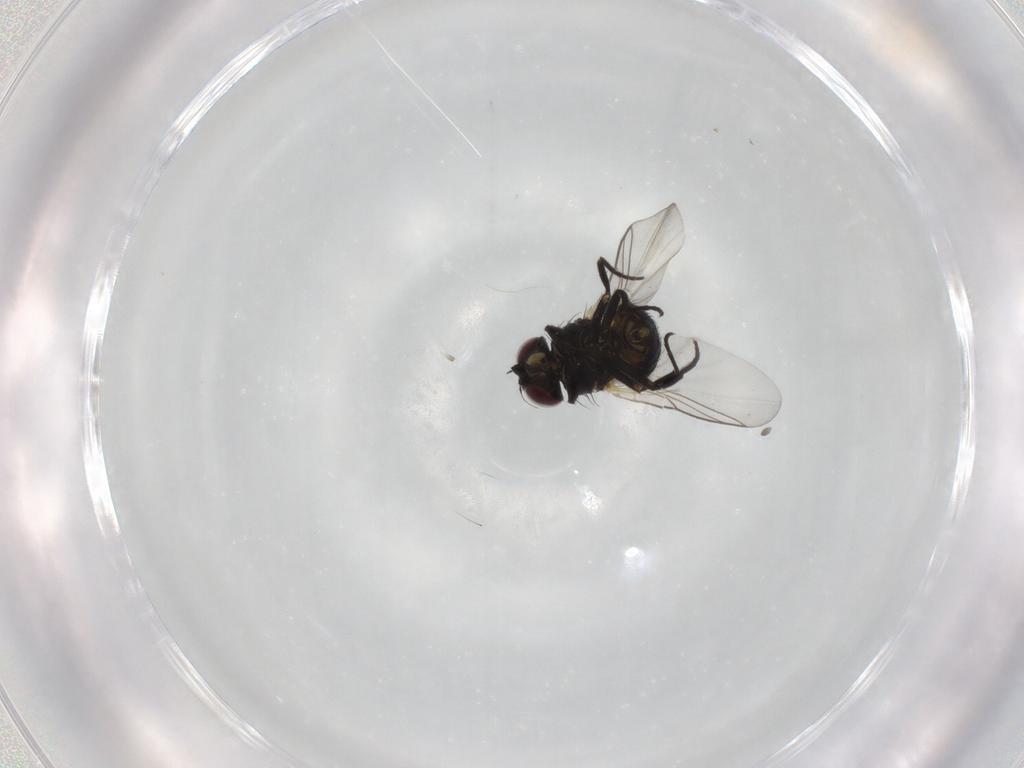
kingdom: Animalia
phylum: Arthropoda
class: Insecta
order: Diptera
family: Agromyzidae
